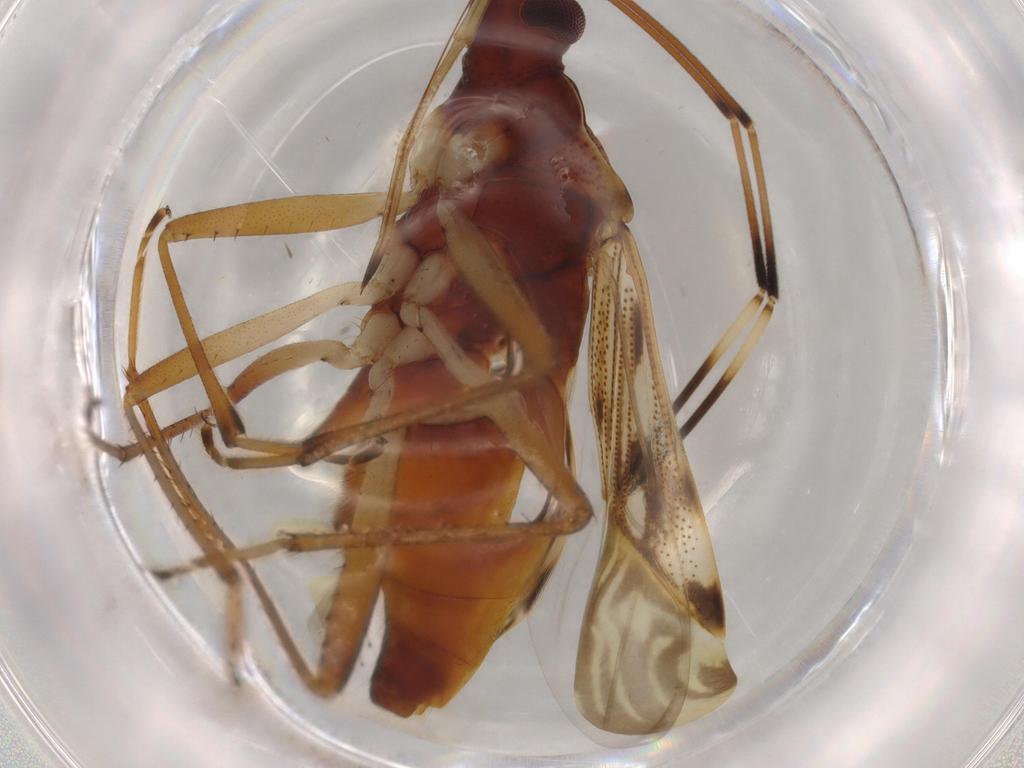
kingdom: Animalia
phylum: Arthropoda
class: Insecta
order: Hemiptera
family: Rhyparochromidae
